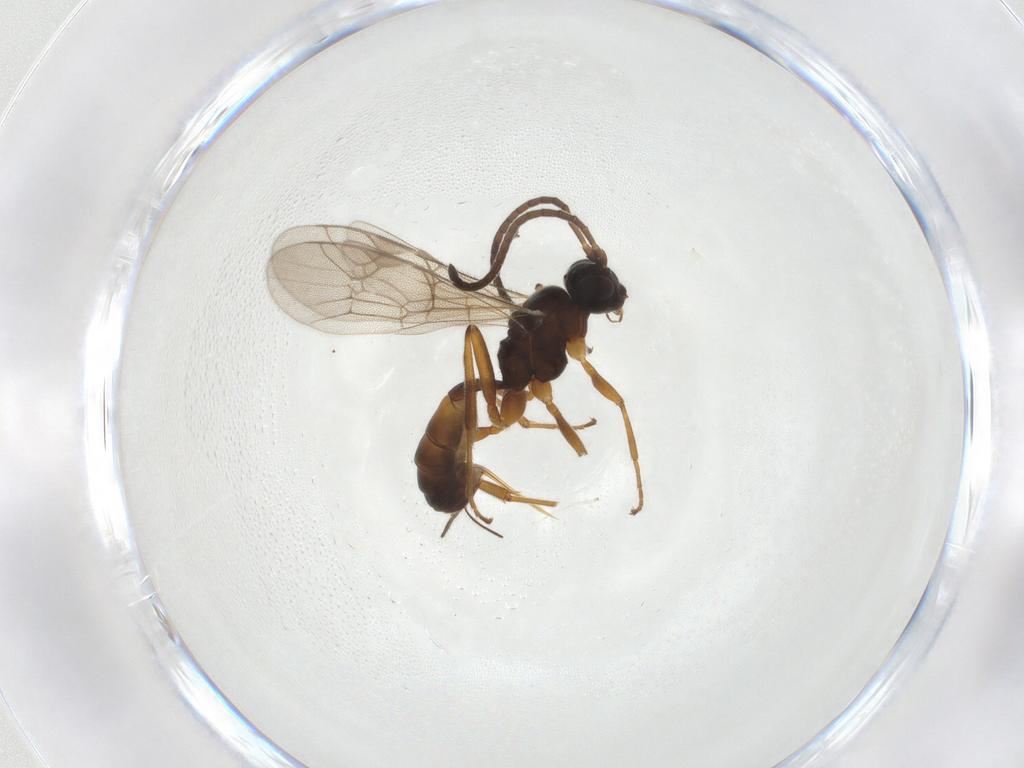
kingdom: Animalia
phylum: Arthropoda
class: Insecta
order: Hymenoptera
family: Ichneumonidae
